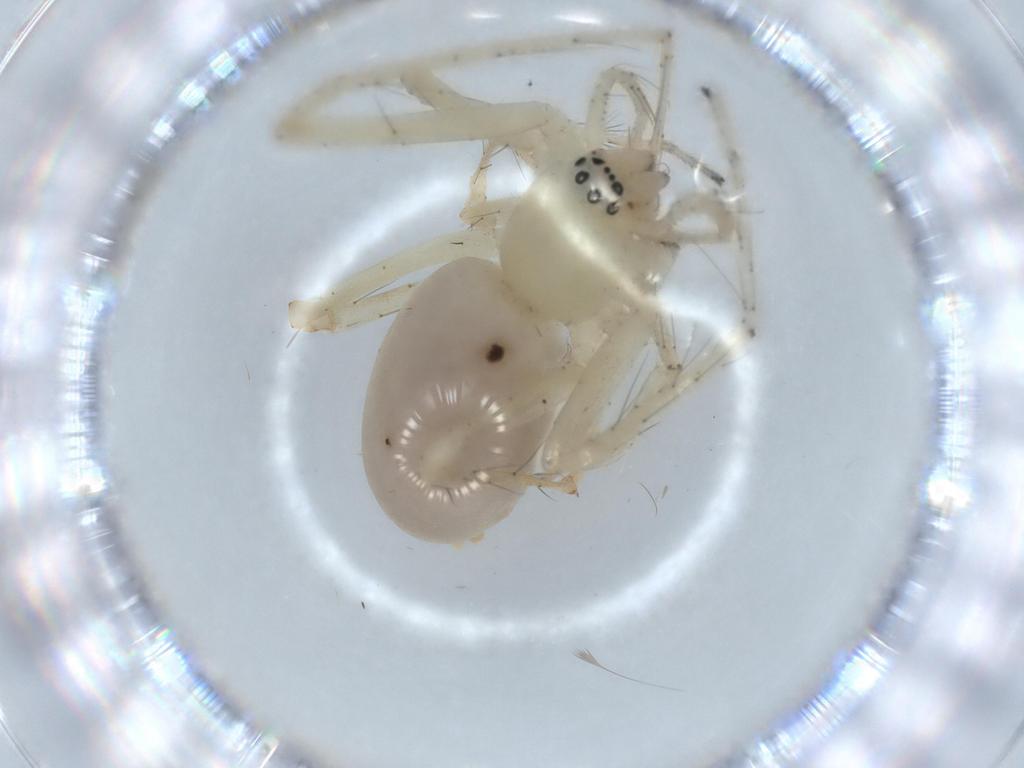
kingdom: Animalia
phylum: Arthropoda
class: Arachnida
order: Araneae
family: Anyphaenidae
